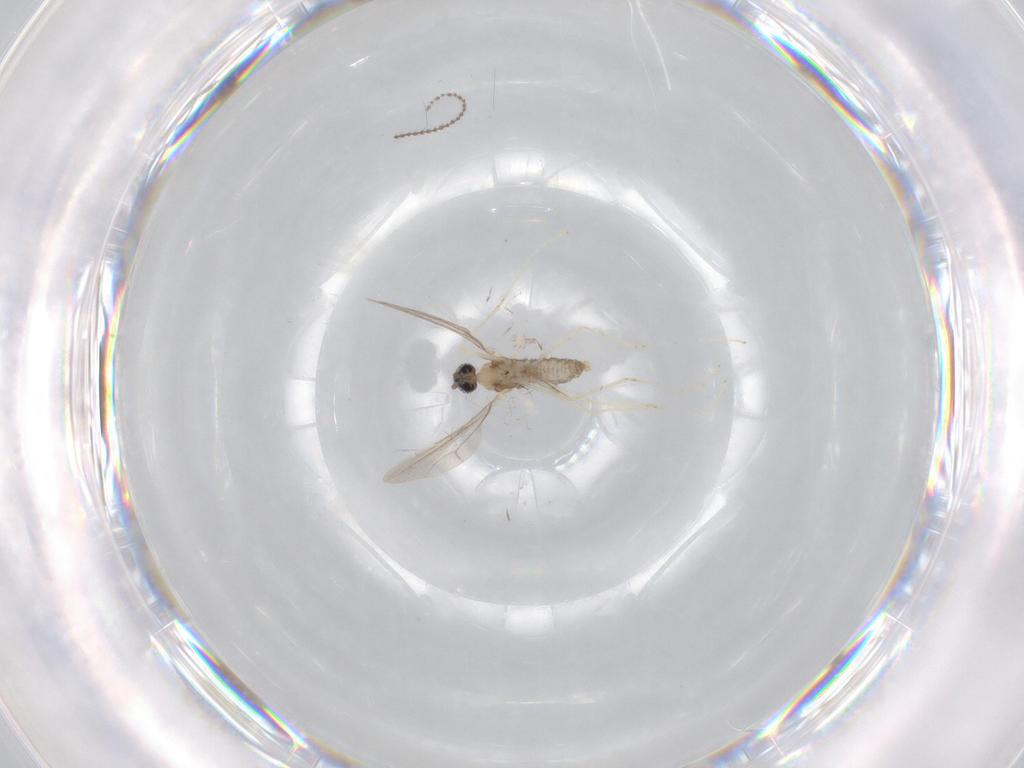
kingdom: Animalia
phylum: Arthropoda
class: Insecta
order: Diptera
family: Cecidomyiidae
